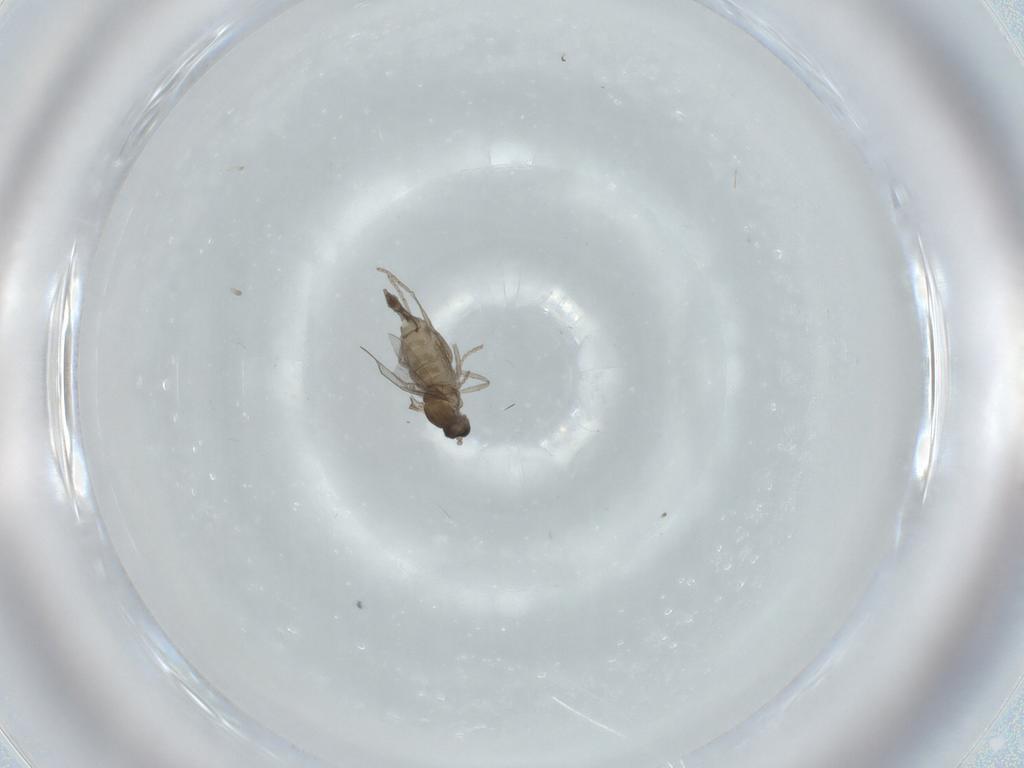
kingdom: Animalia
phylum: Arthropoda
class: Insecta
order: Diptera
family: Cecidomyiidae
